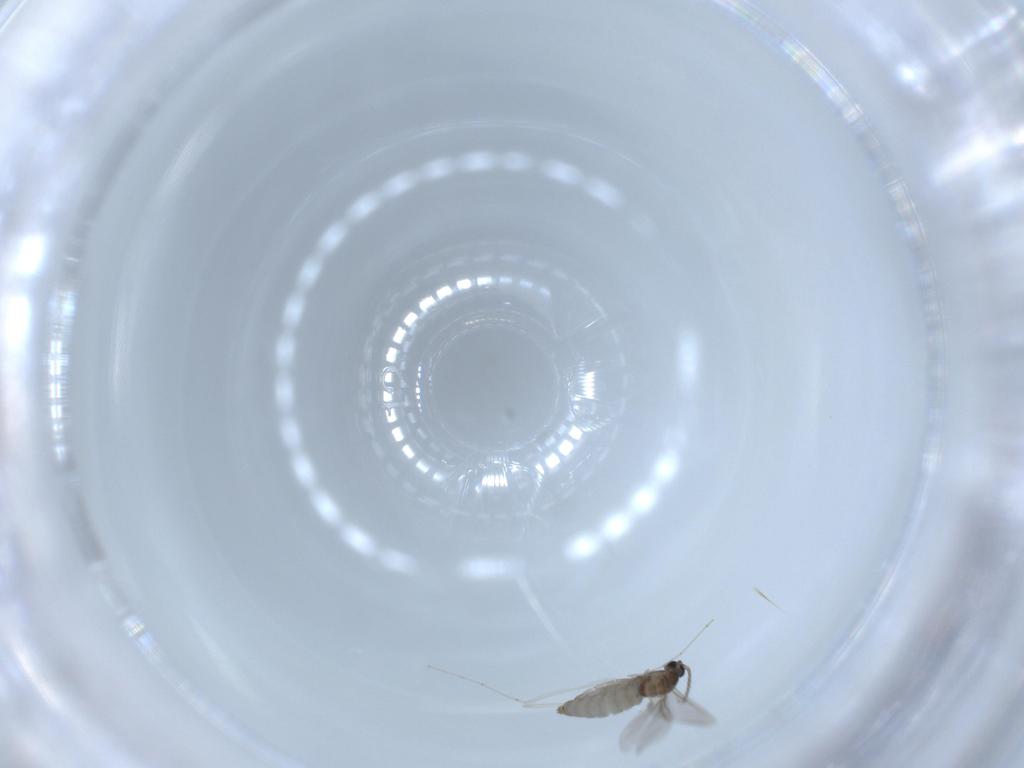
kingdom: Animalia
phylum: Arthropoda
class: Insecta
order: Diptera
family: Cecidomyiidae
